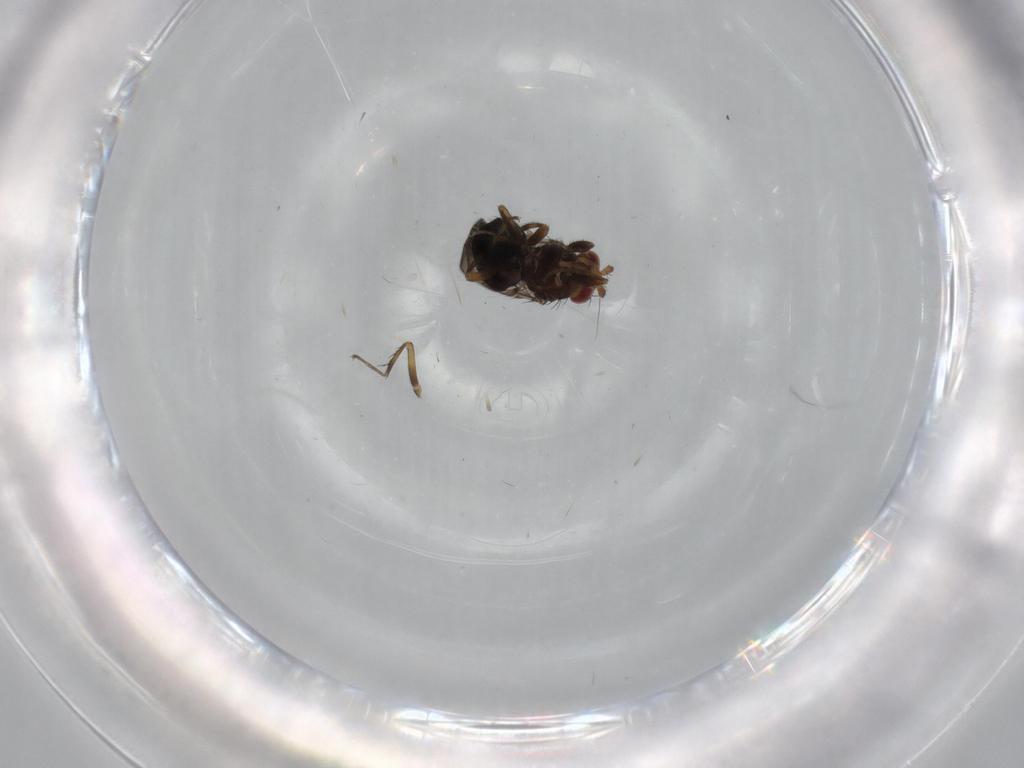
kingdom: Animalia
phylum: Arthropoda
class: Insecta
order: Diptera
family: Sphaeroceridae
